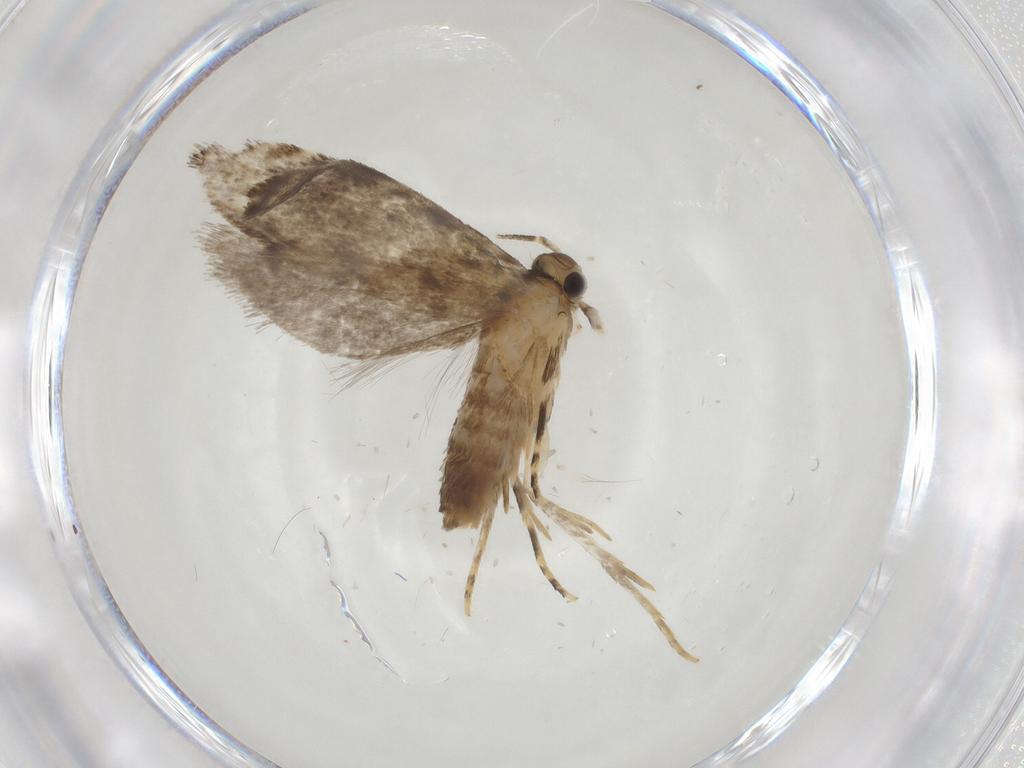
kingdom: Animalia
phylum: Arthropoda
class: Insecta
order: Lepidoptera
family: Tineidae
